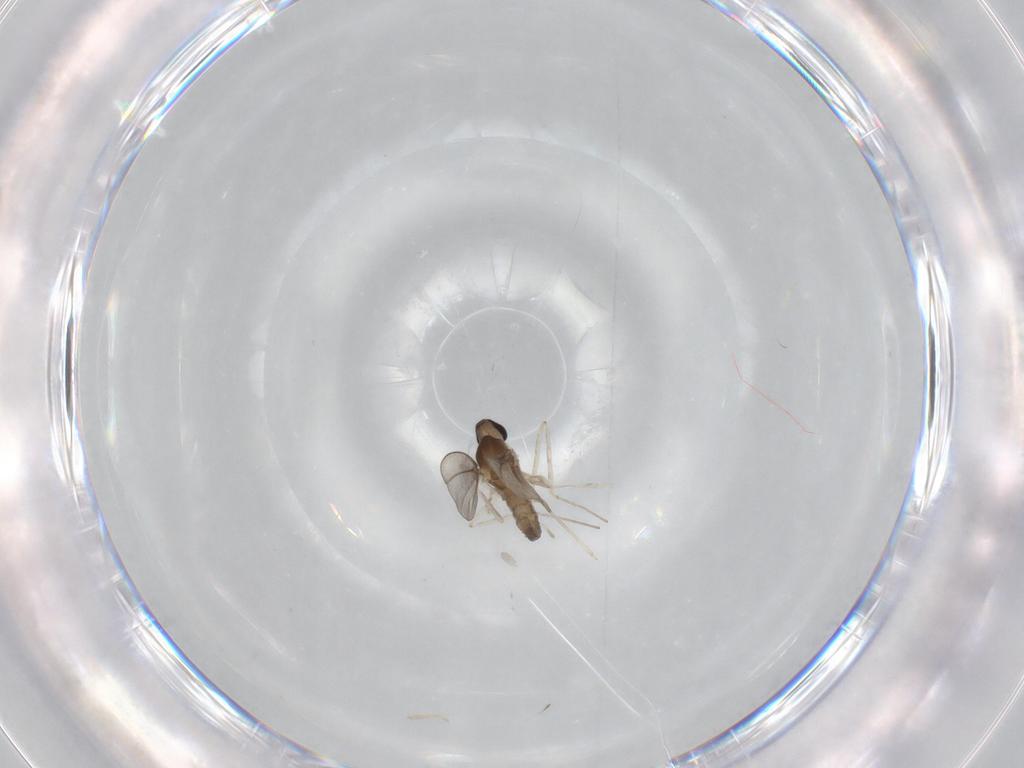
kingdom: Animalia
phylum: Arthropoda
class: Insecta
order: Diptera
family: Cecidomyiidae
